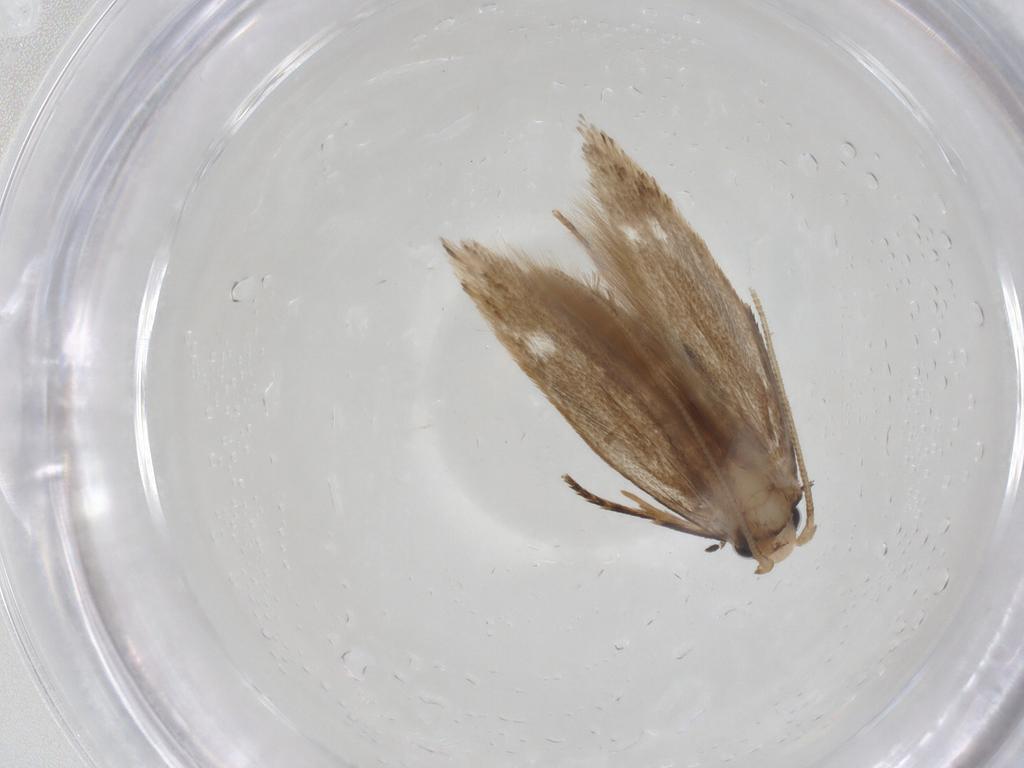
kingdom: Animalia
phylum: Arthropoda
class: Insecta
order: Lepidoptera
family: Tineidae
